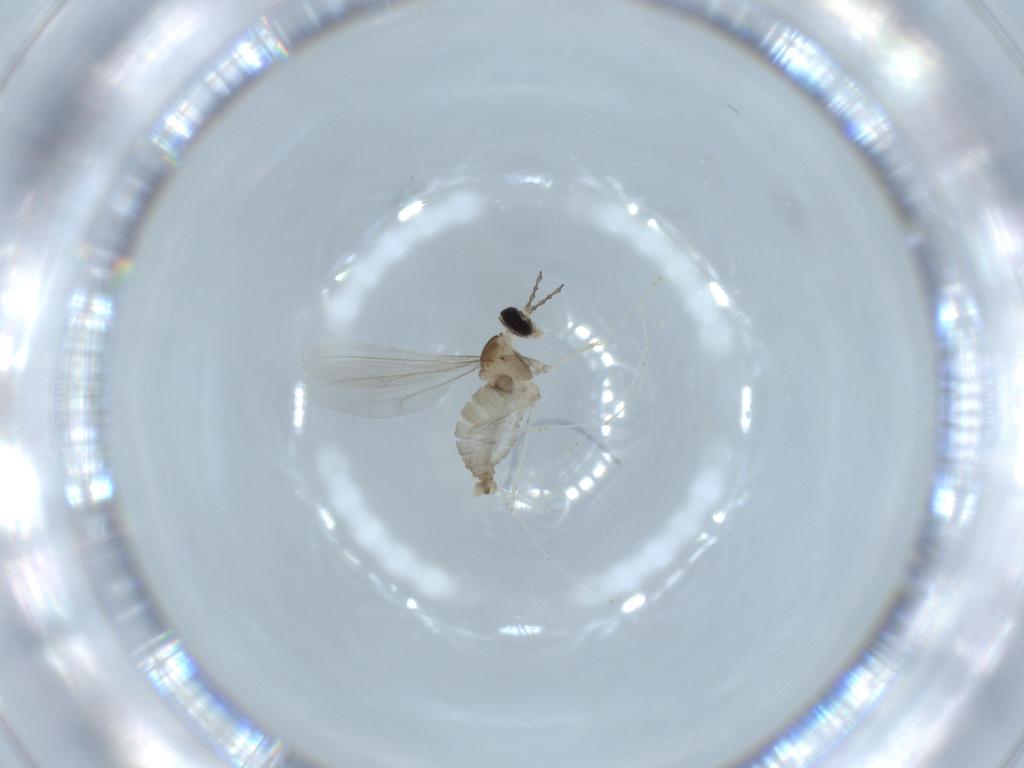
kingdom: Animalia
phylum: Arthropoda
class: Insecta
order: Diptera
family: Cecidomyiidae
